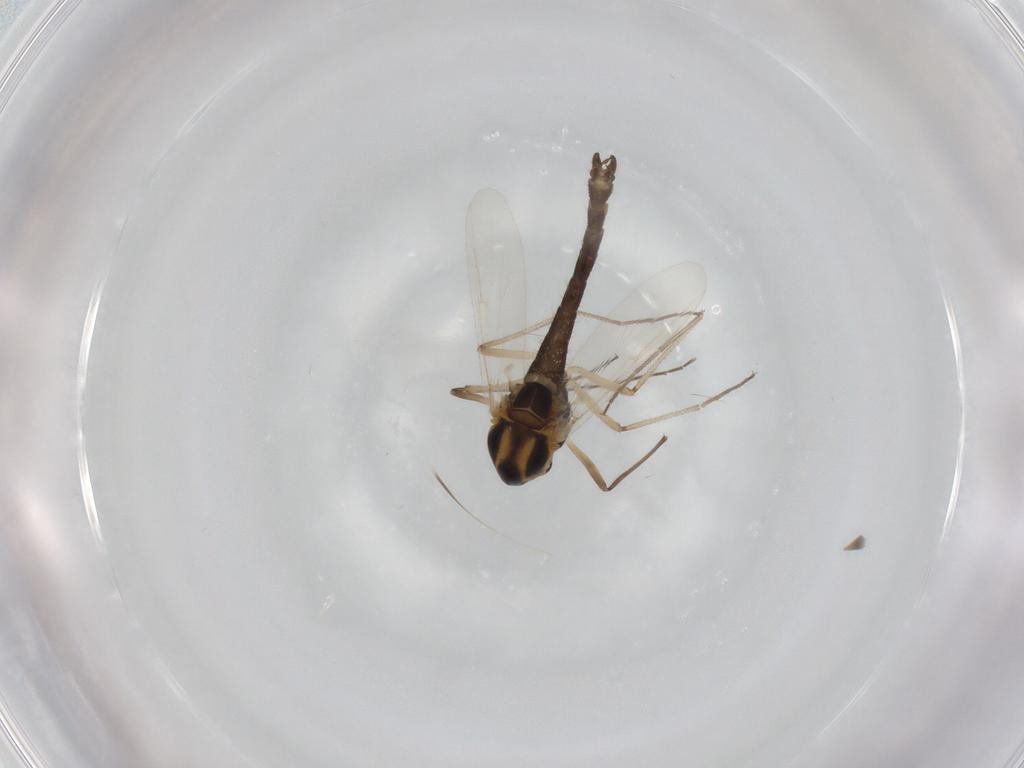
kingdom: Animalia
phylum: Arthropoda
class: Insecta
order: Diptera
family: Chironomidae
